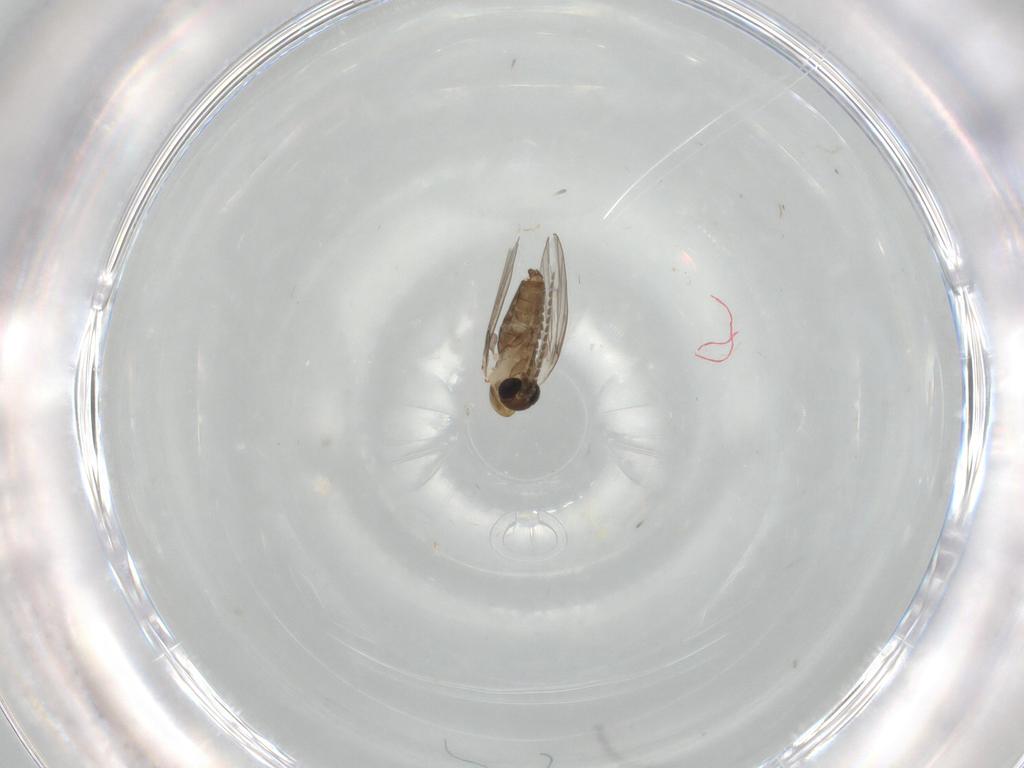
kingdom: Animalia
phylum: Arthropoda
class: Insecta
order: Diptera
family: Psychodidae
